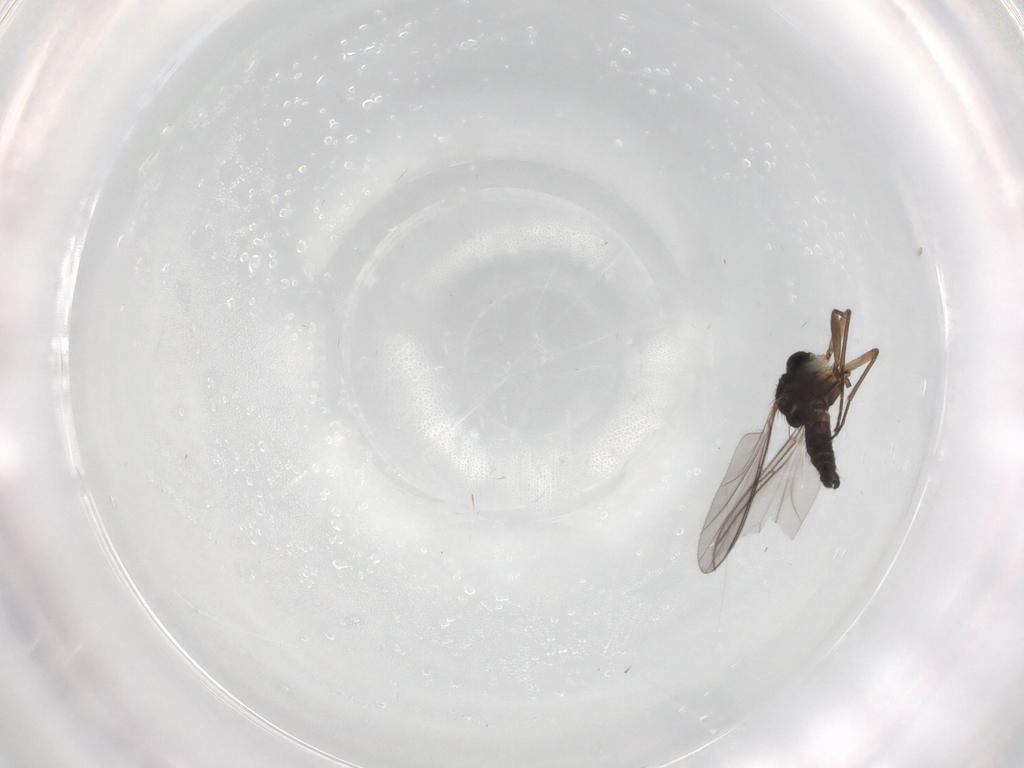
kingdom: Animalia
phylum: Arthropoda
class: Insecta
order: Diptera
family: Sciaridae
